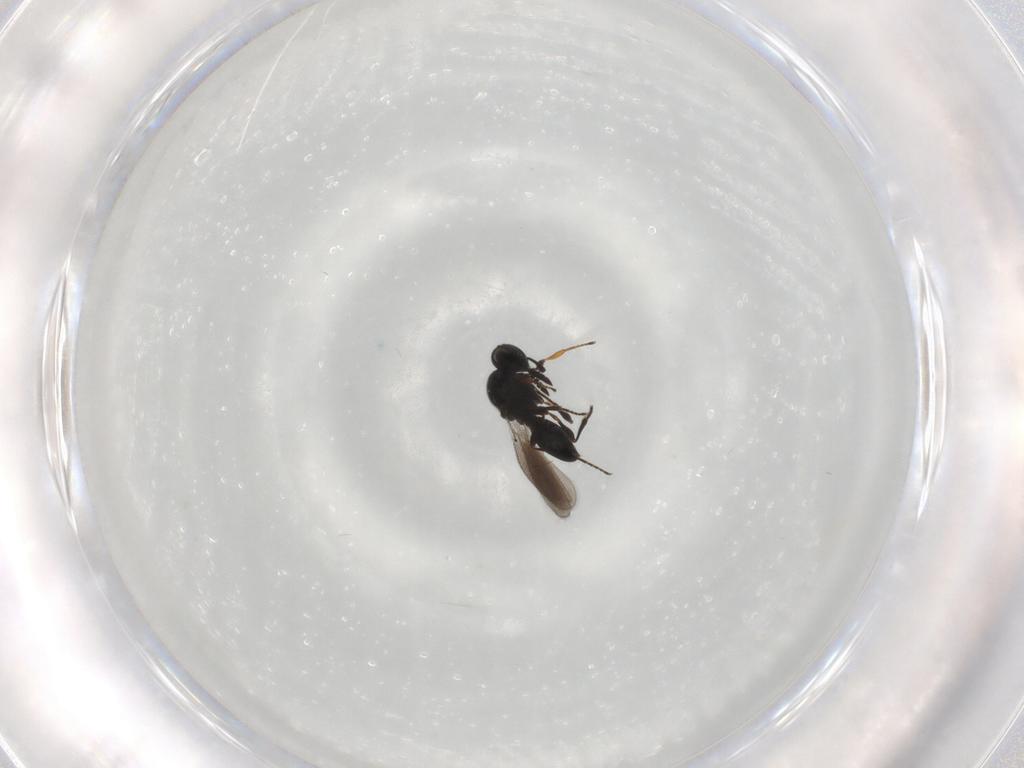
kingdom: Animalia
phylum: Arthropoda
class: Insecta
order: Hymenoptera
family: Platygastridae
